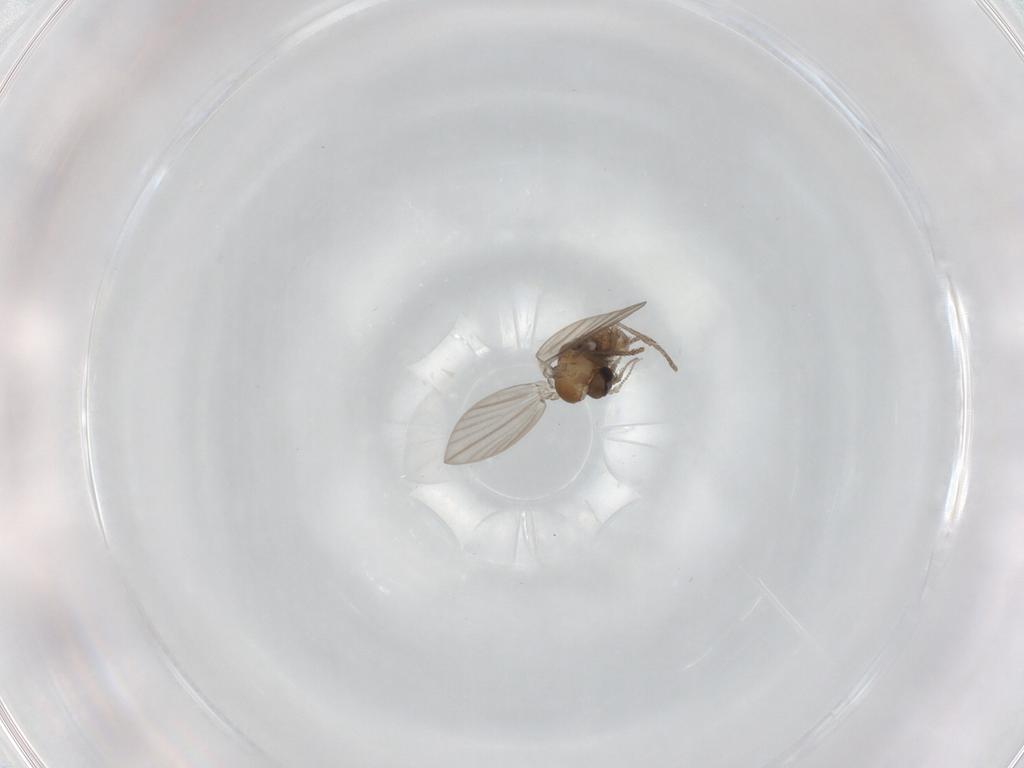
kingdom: Animalia
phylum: Arthropoda
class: Insecta
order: Diptera
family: Psychodidae
